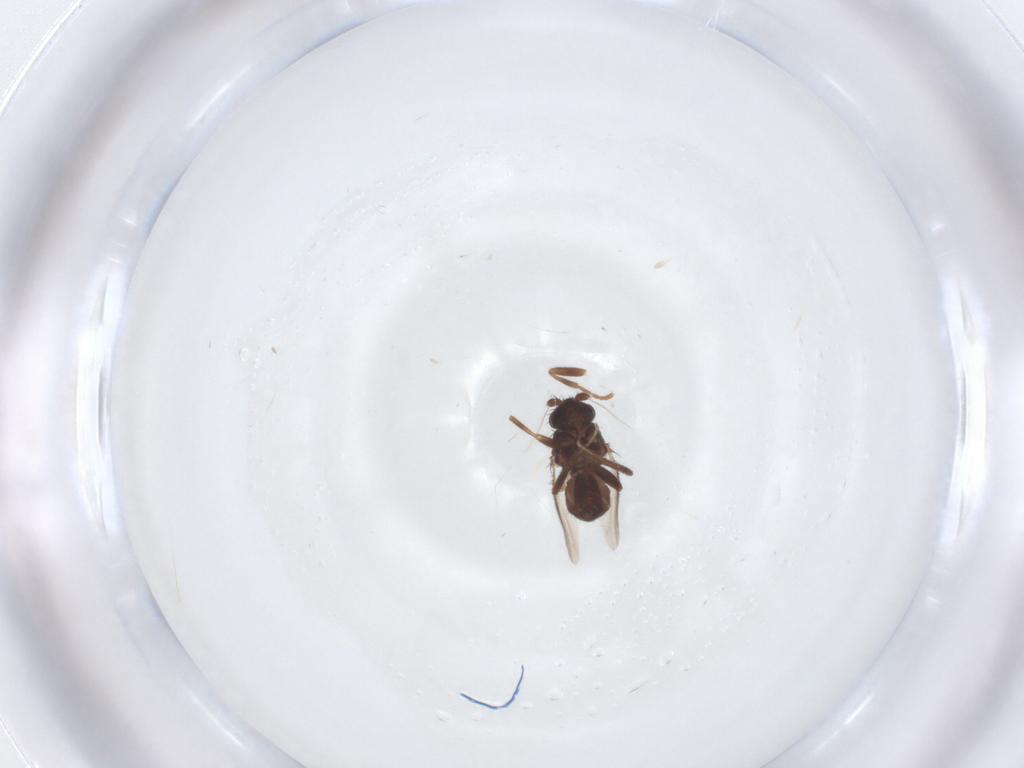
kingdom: Animalia
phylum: Arthropoda
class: Insecta
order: Diptera
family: Sphaeroceridae
